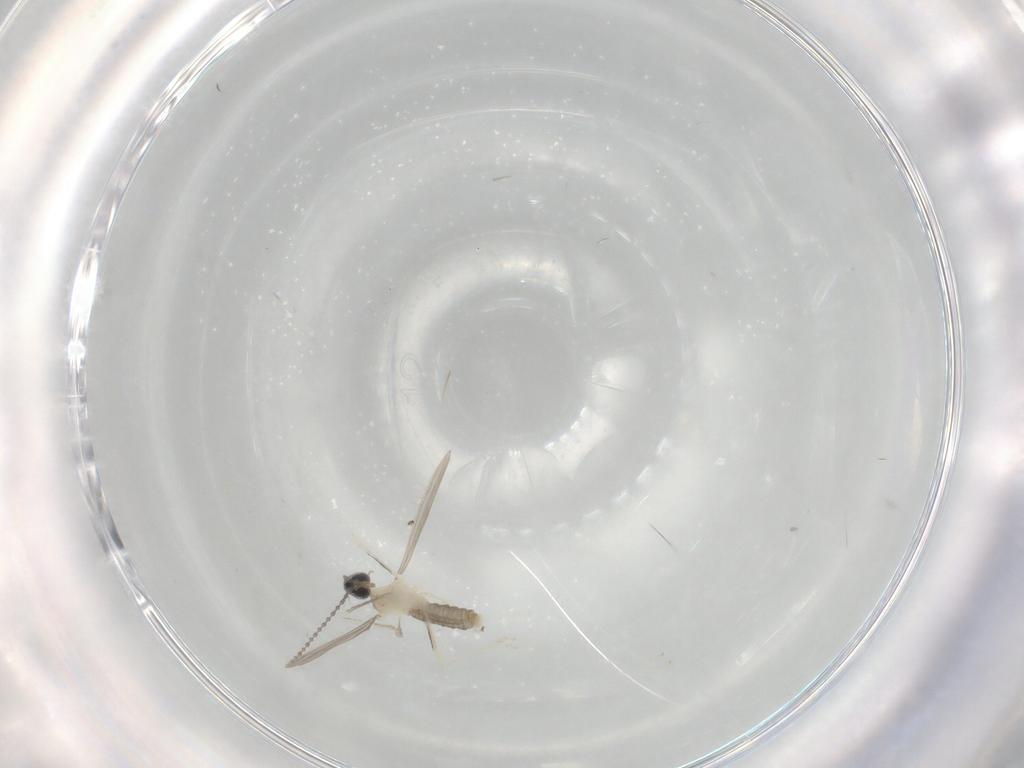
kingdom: Animalia
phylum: Arthropoda
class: Insecta
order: Diptera
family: Cecidomyiidae
